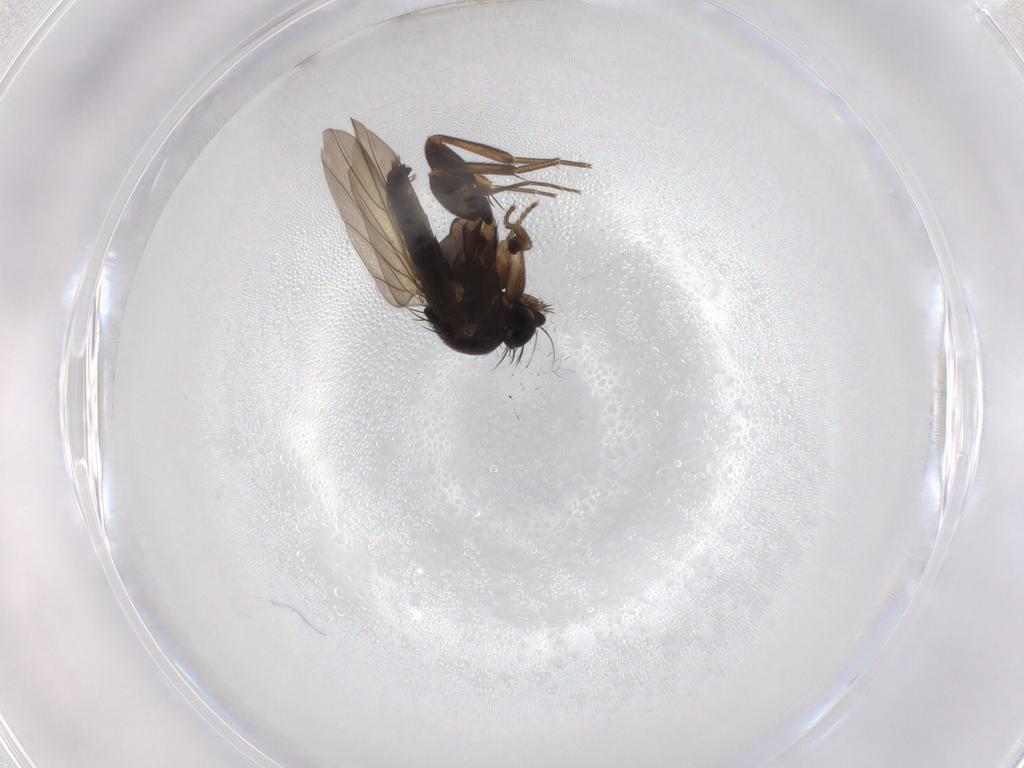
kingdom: Animalia
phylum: Arthropoda
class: Insecta
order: Diptera
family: Phoridae
